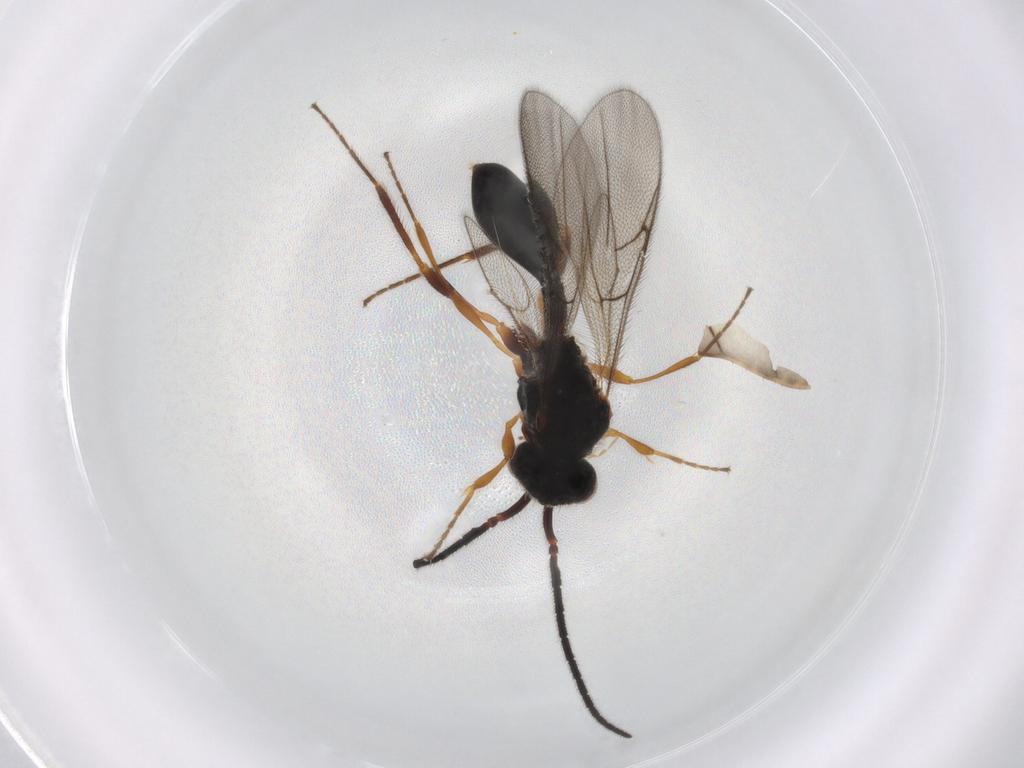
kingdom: Animalia
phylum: Arthropoda
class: Insecta
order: Hymenoptera
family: Diapriidae
